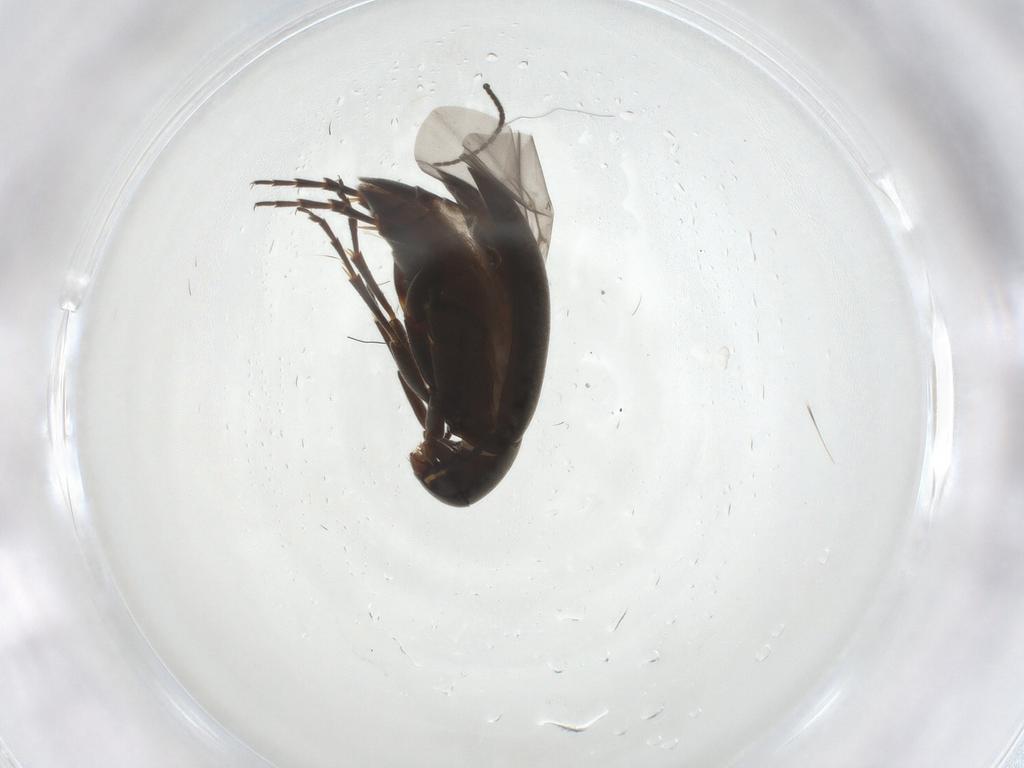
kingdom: Animalia
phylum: Arthropoda
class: Insecta
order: Coleoptera
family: Scraptiidae
